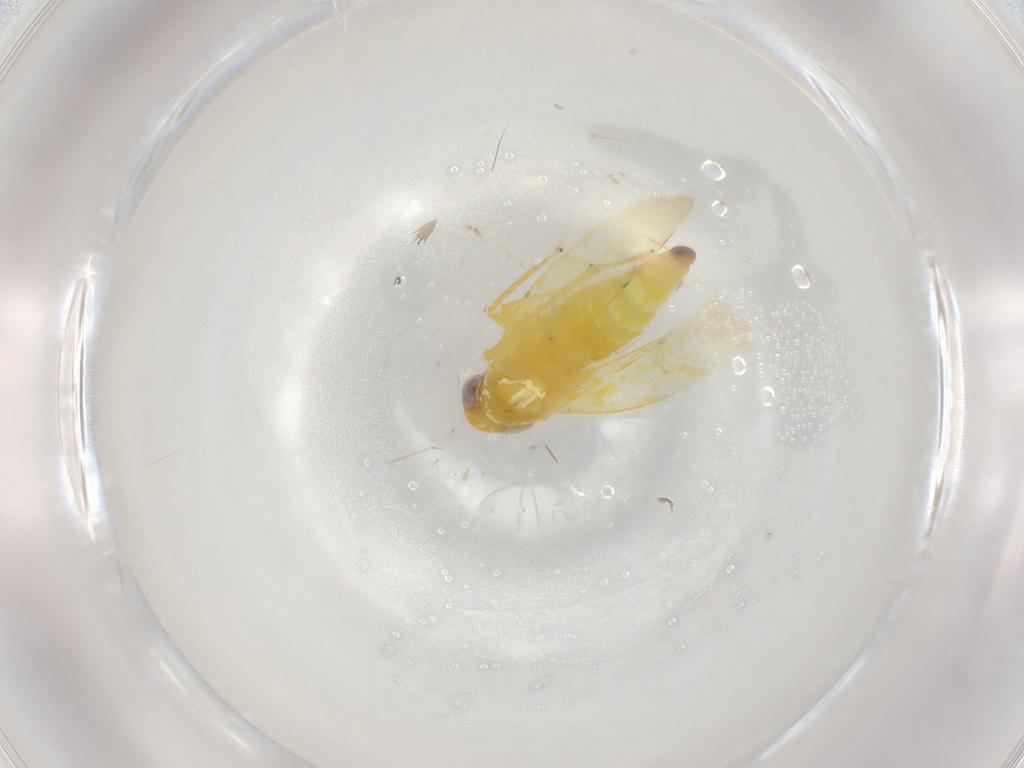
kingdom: Animalia
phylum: Arthropoda
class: Insecta
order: Hemiptera
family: Cicadellidae
